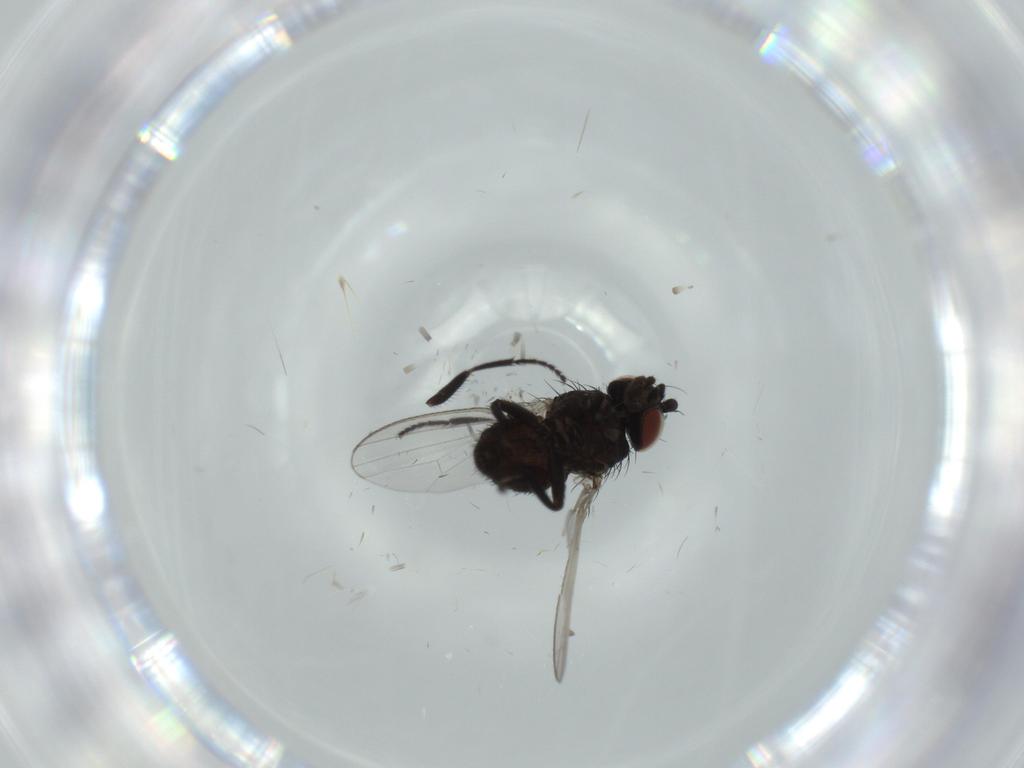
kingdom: Animalia
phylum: Arthropoda
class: Insecta
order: Diptera
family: Milichiidae
